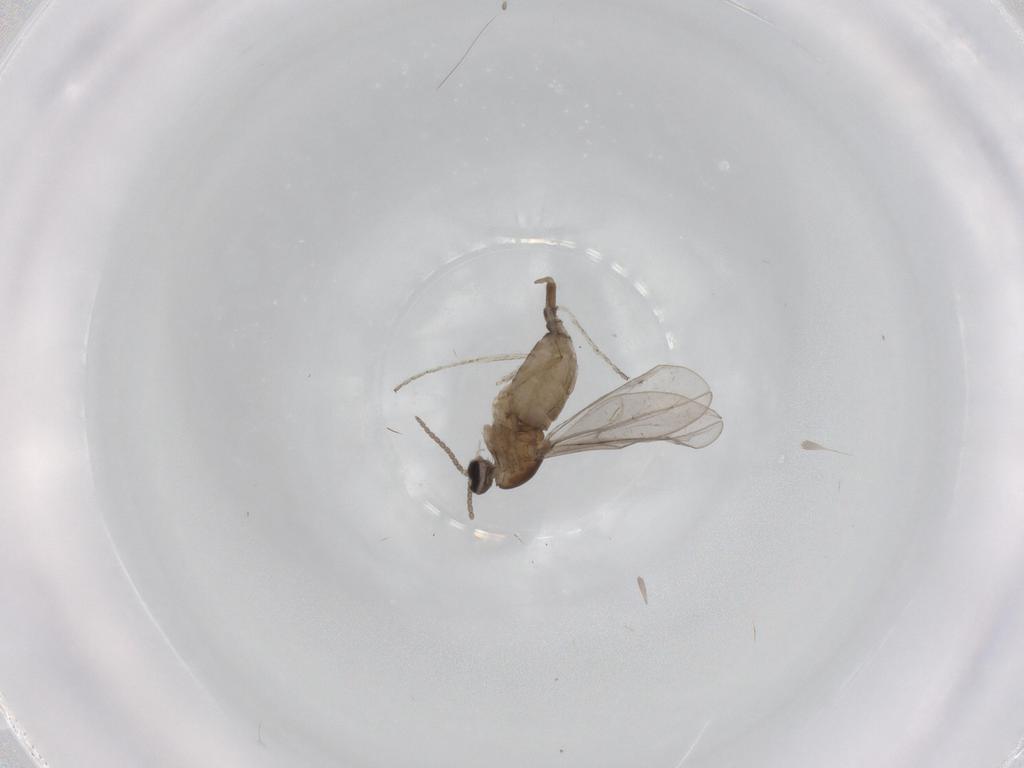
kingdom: Animalia
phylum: Arthropoda
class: Insecta
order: Diptera
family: Cecidomyiidae
